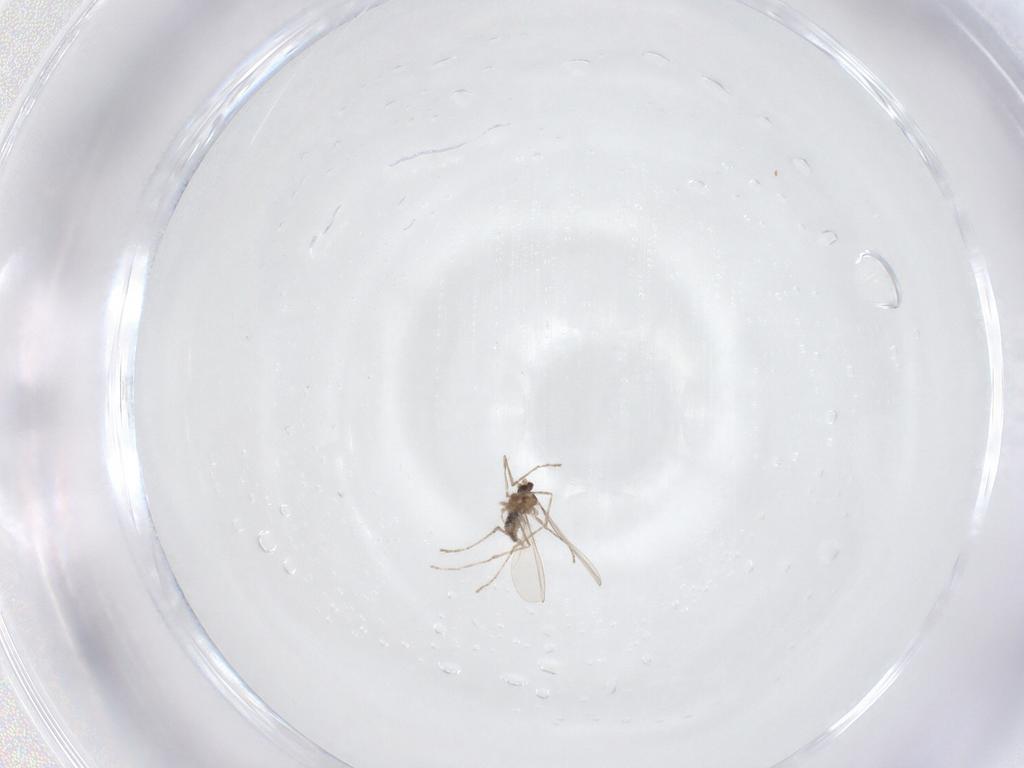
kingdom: Animalia
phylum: Arthropoda
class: Insecta
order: Diptera
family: Cecidomyiidae
